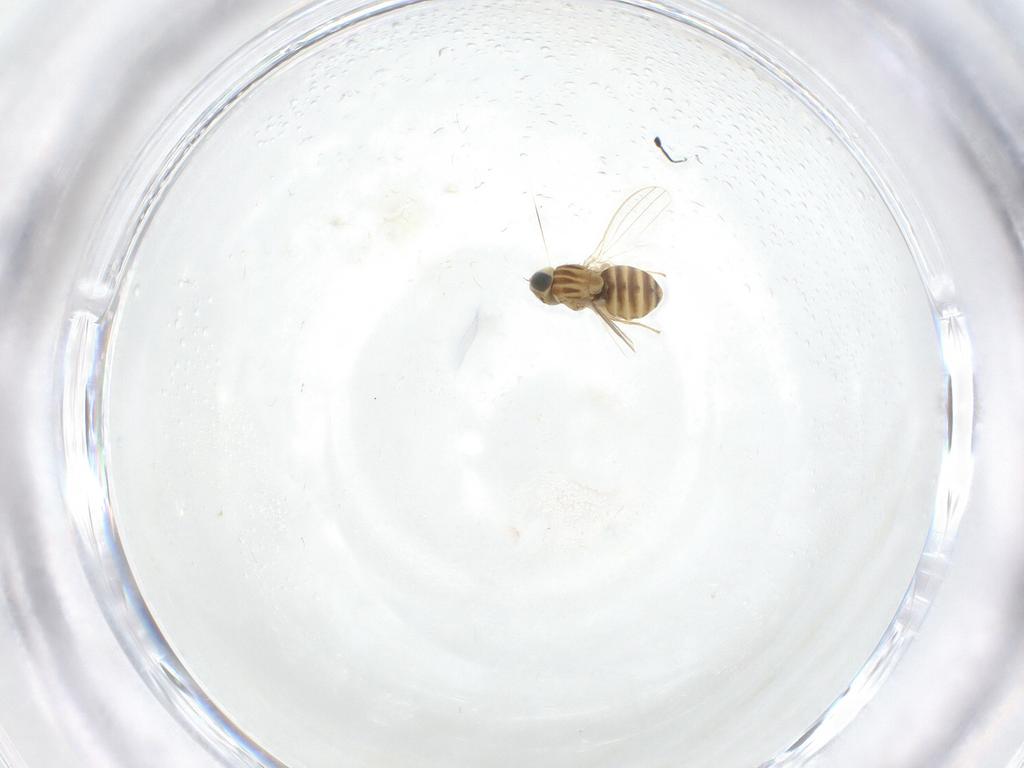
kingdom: Animalia
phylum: Arthropoda
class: Insecta
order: Diptera
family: Chyromyidae
